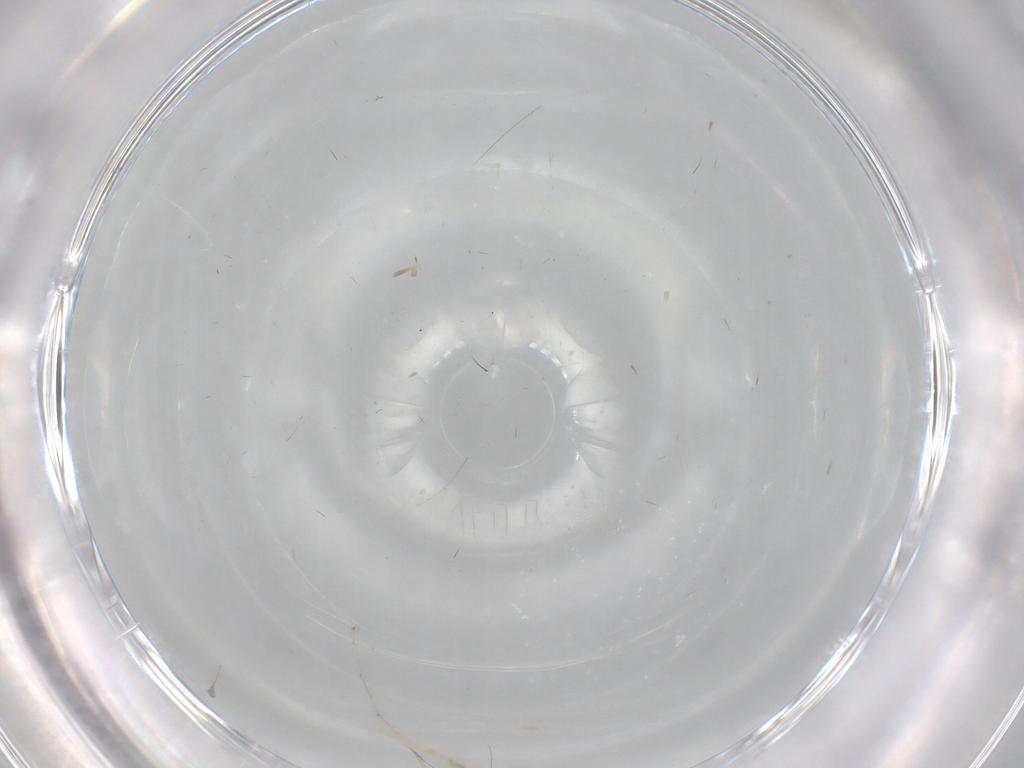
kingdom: Animalia
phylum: Arthropoda
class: Insecta
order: Diptera
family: Cecidomyiidae
